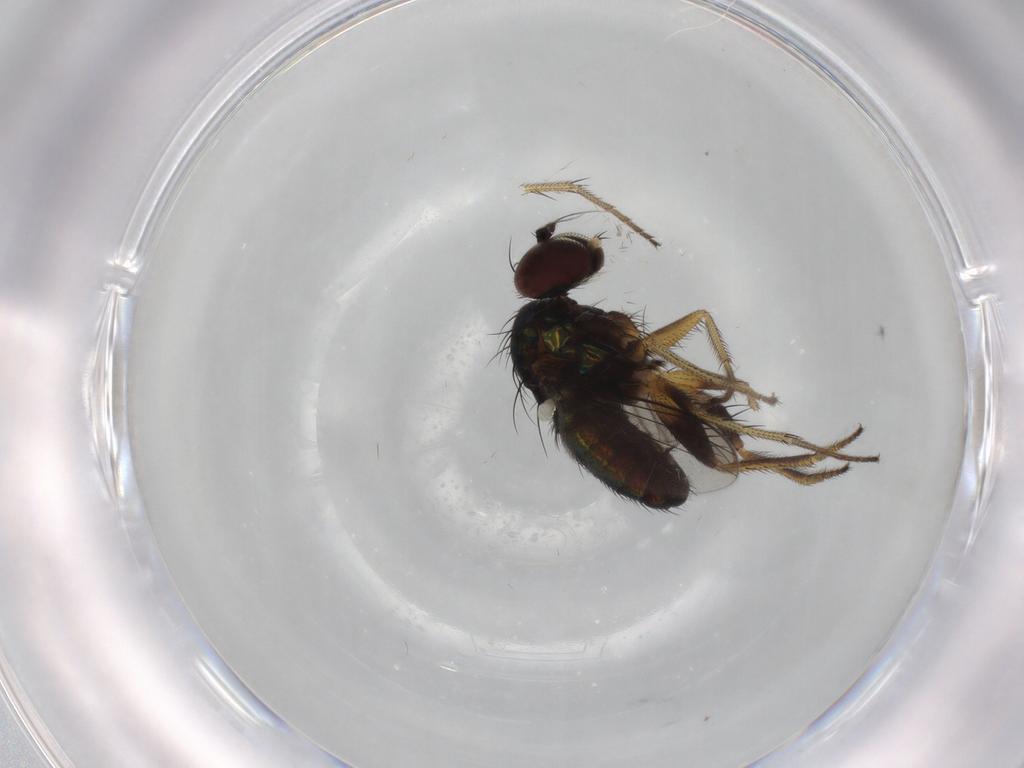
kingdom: Animalia
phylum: Arthropoda
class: Insecta
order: Diptera
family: Dolichopodidae
